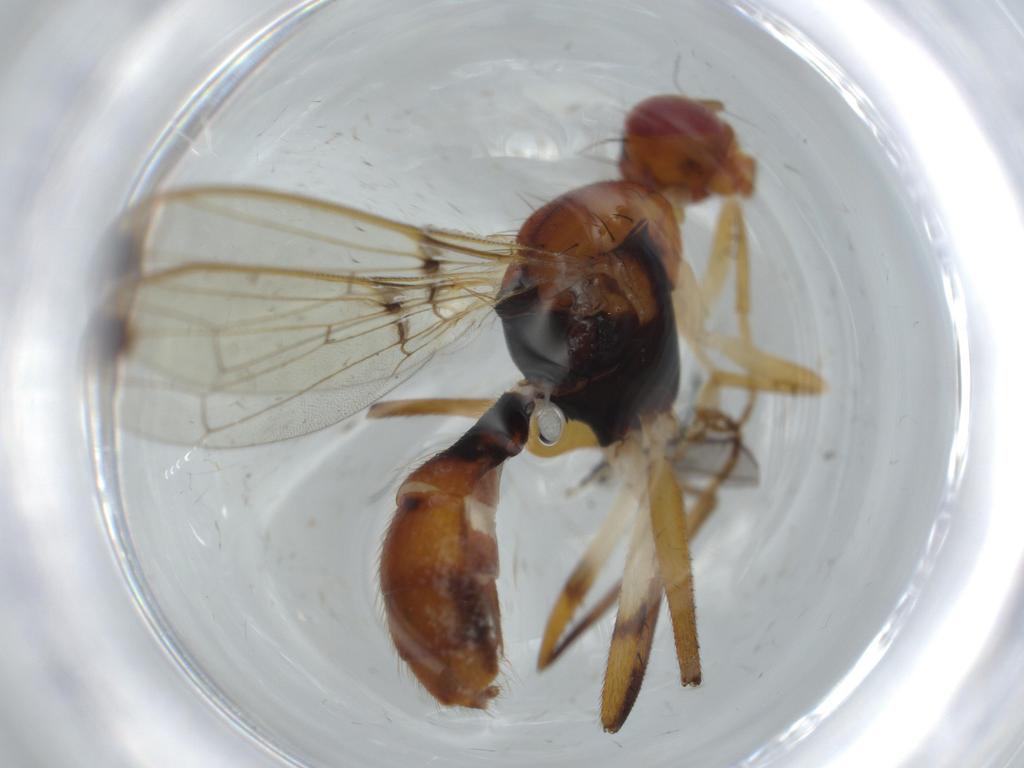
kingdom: Animalia
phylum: Arthropoda
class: Insecta
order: Diptera
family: Richardiidae
